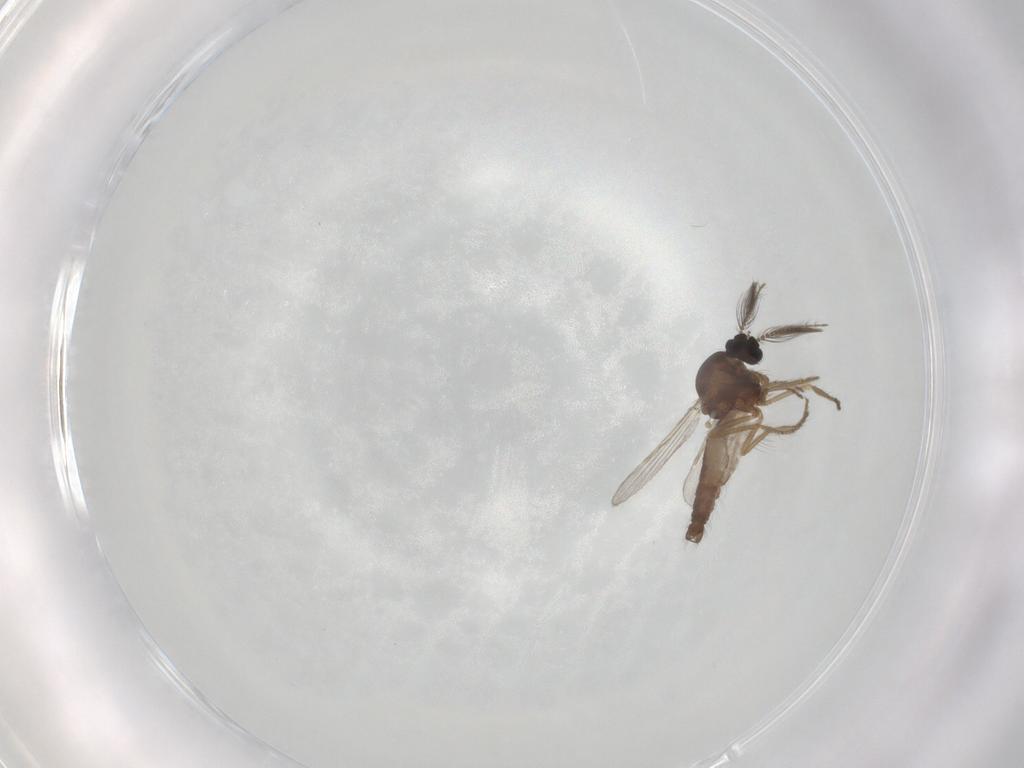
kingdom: Animalia
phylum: Arthropoda
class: Insecta
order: Diptera
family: Ceratopogonidae
